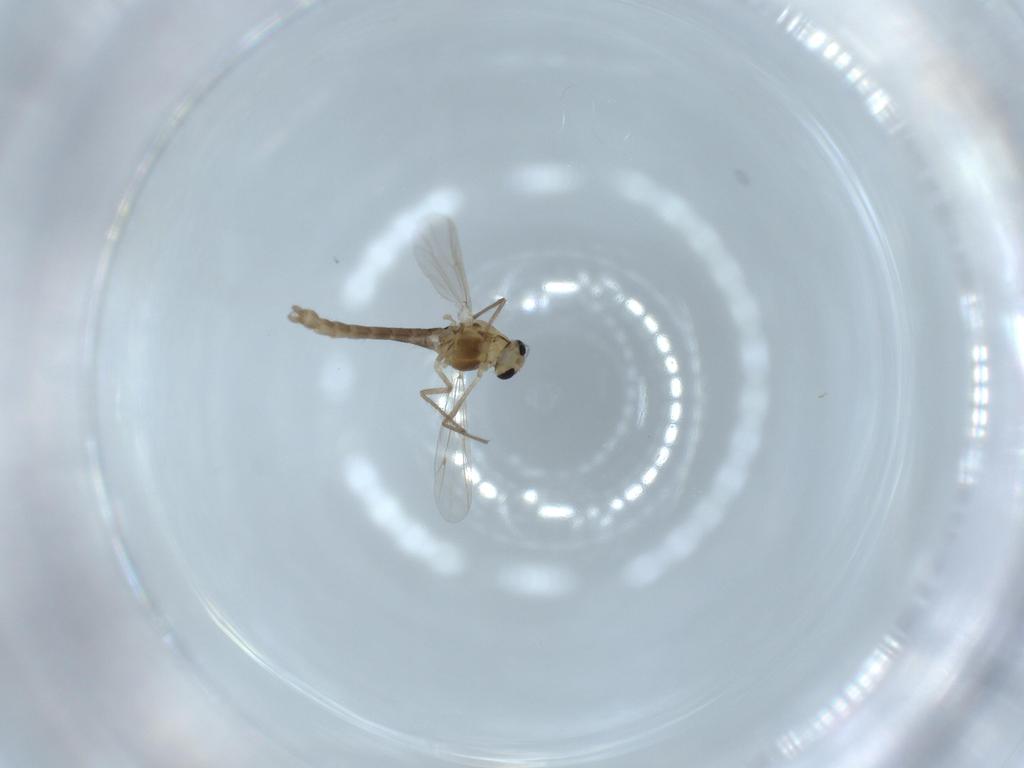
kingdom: Animalia
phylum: Arthropoda
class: Insecta
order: Diptera
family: Chironomidae
